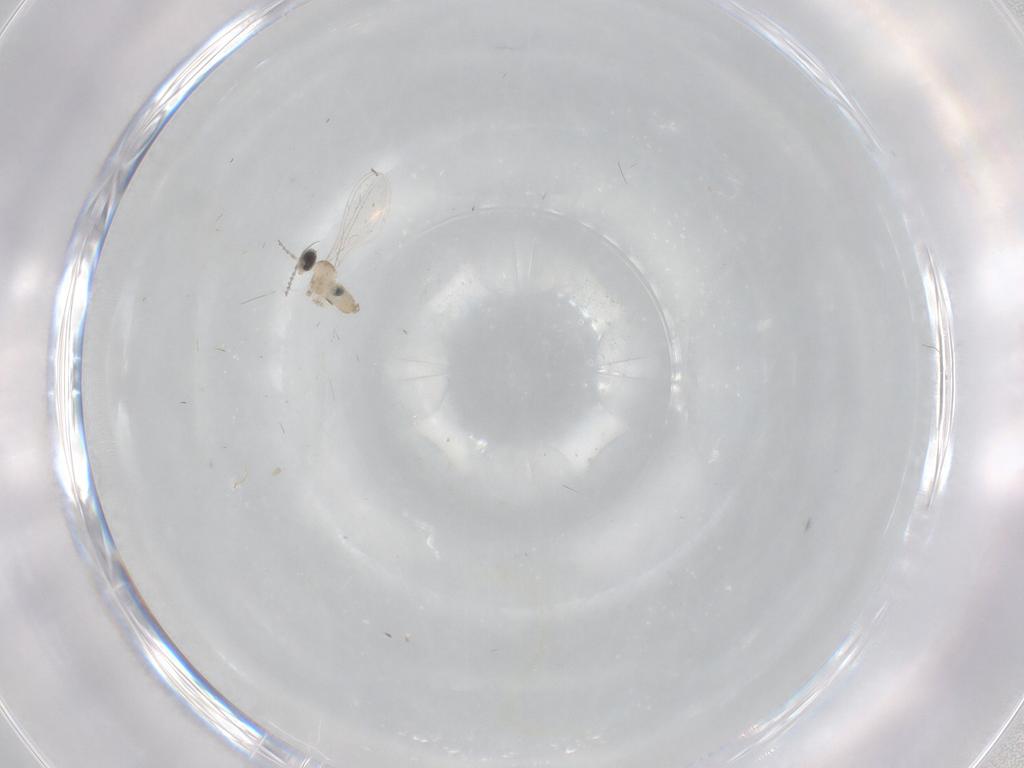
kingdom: Animalia
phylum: Arthropoda
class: Insecta
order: Diptera
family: Cecidomyiidae
